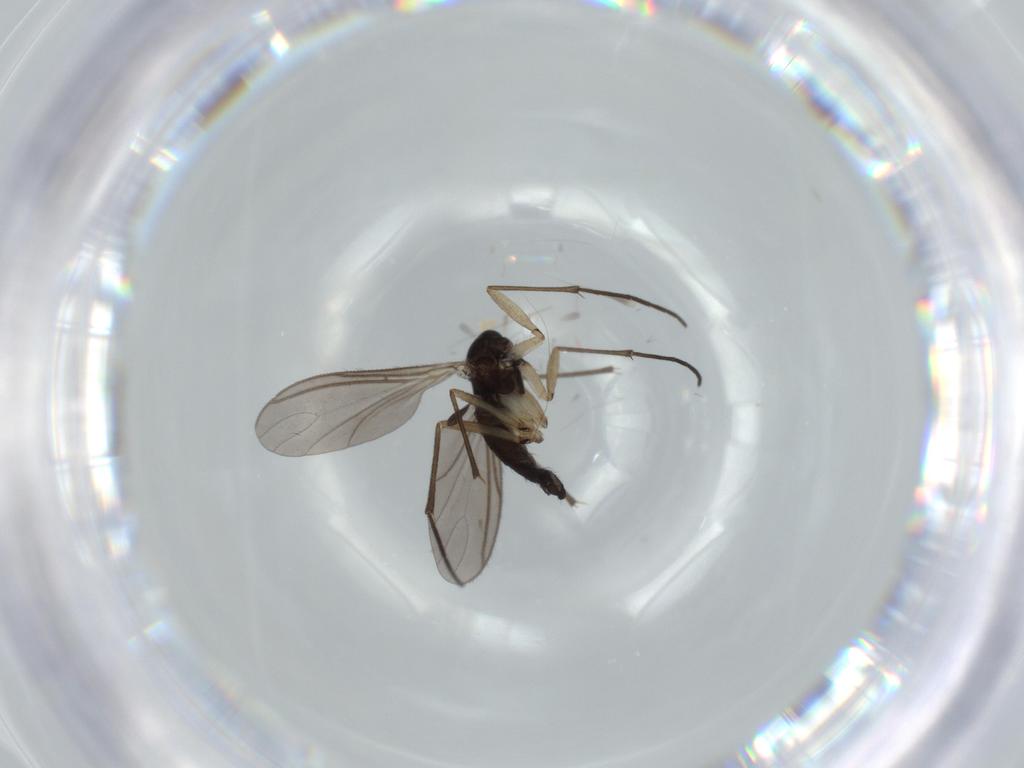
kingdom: Animalia
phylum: Arthropoda
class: Insecta
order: Diptera
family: Sciaridae
